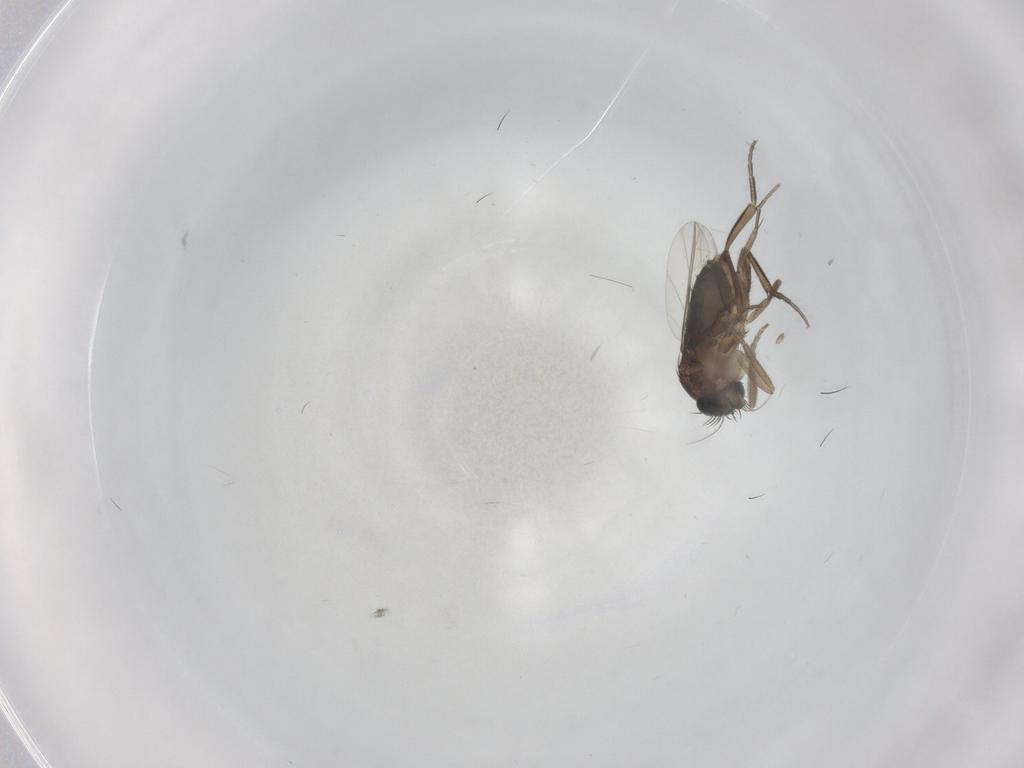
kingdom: Animalia
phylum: Arthropoda
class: Insecta
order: Diptera
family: Phoridae
